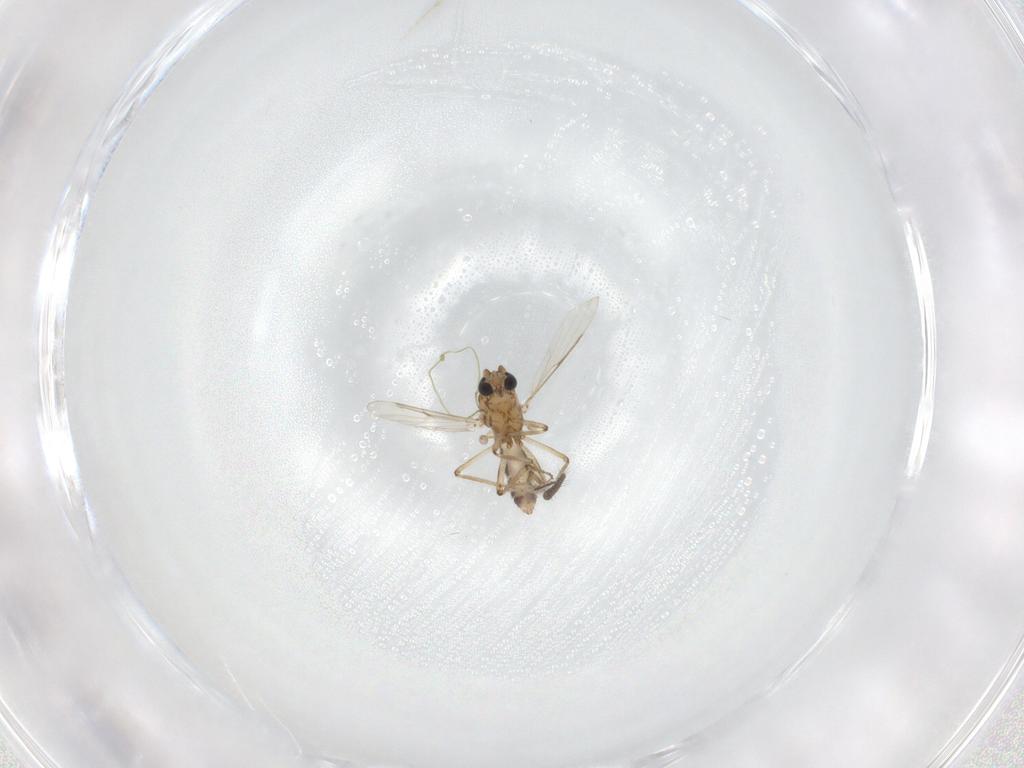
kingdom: Animalia
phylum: Arthropoda
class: Insecta
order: Diptera
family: Ceratopogonidae
